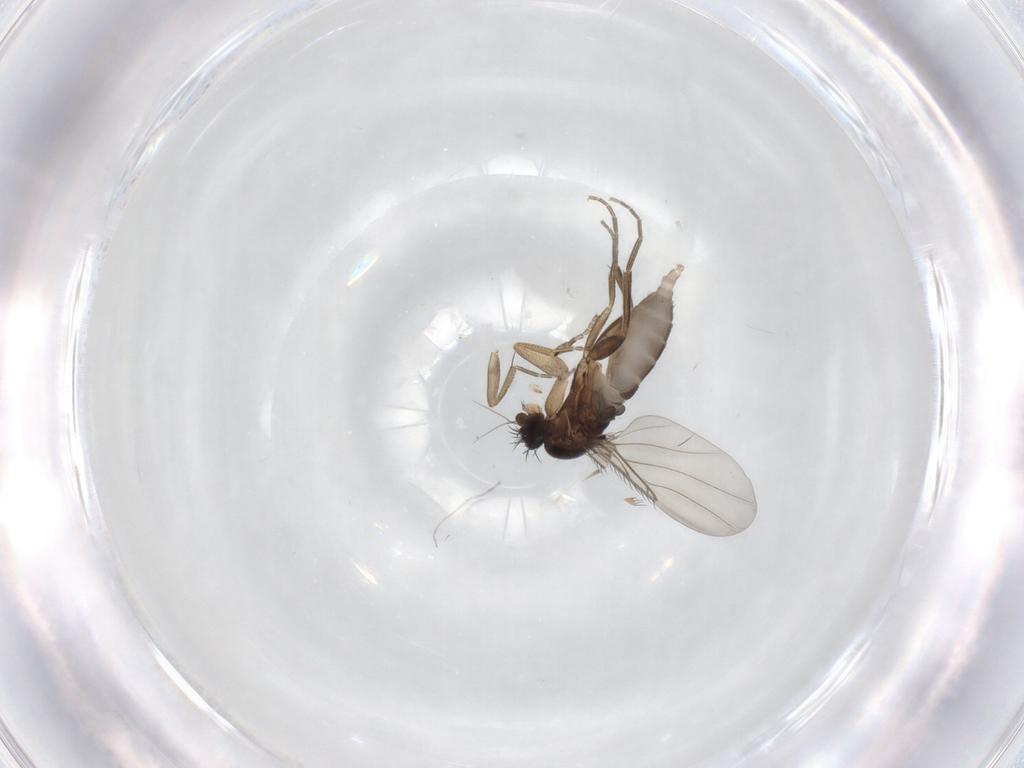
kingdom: Animalia
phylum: Arthropoda
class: Insecta
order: Diptera
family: Phoridae
